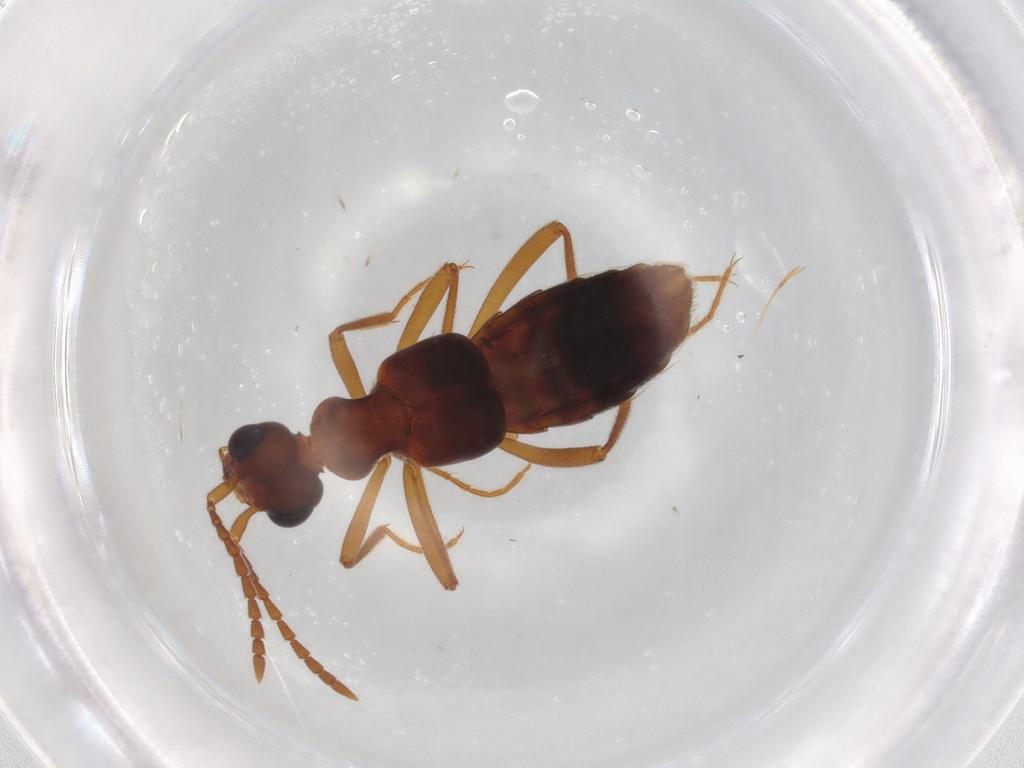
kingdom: Animalia
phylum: Arthropoda
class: Insecta
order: Coleoptera
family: Staphylinidae
